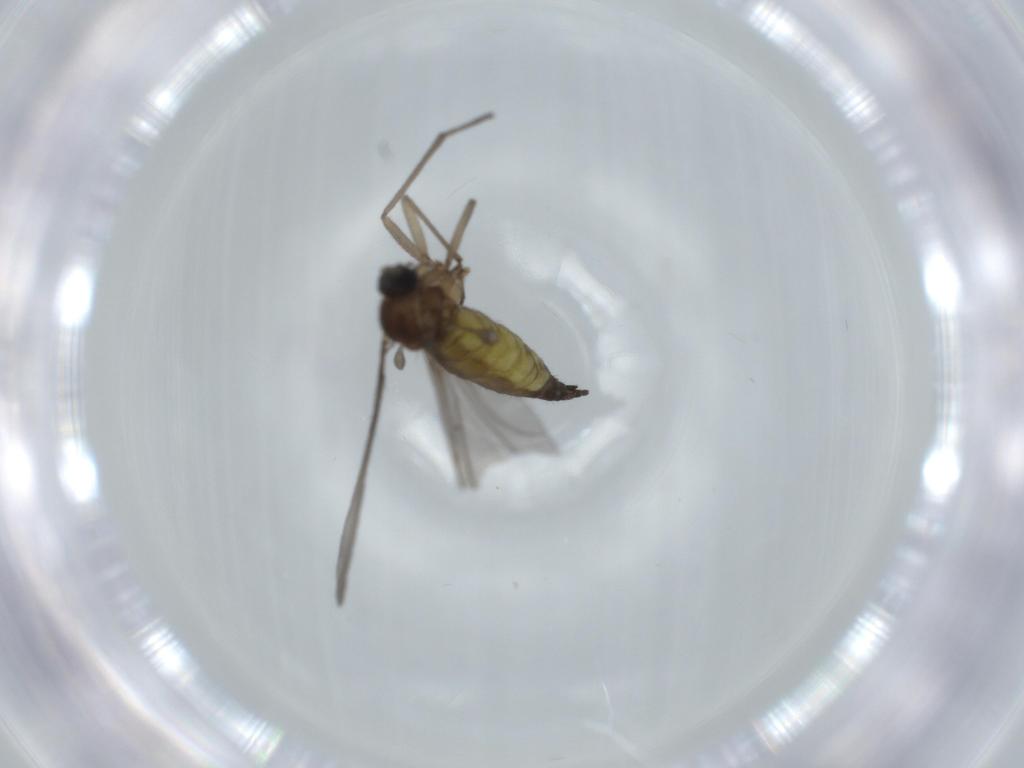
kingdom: Animalia
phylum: Arthropoda
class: Insecta
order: Diptera
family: Sciaridae
